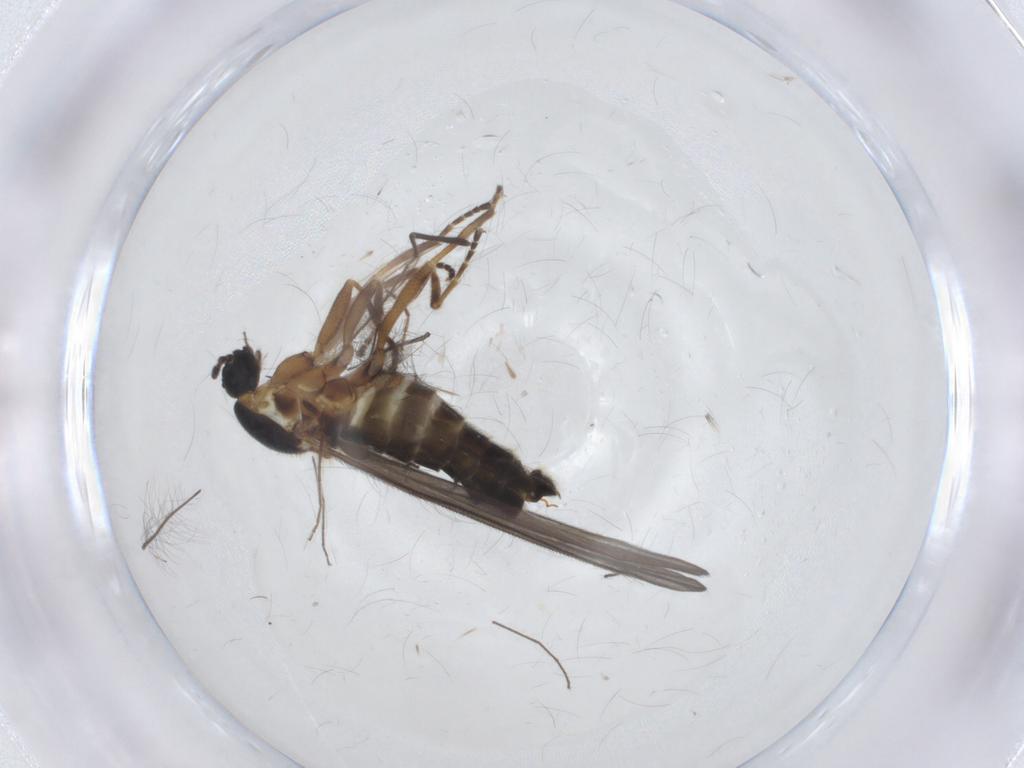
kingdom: Animalia
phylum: Arthropoda
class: Insecta
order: Diptera
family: Scatopsidae
